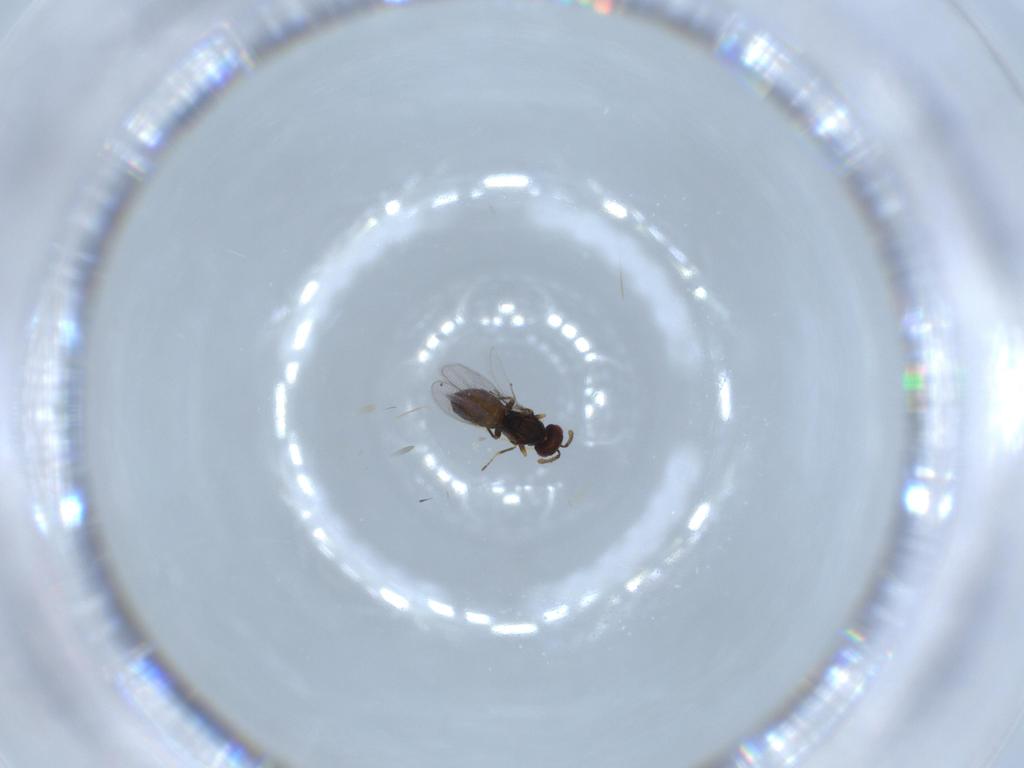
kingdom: Animalia
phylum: Arthropoda
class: Insecta
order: Hymenoptera
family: Eulophidae
